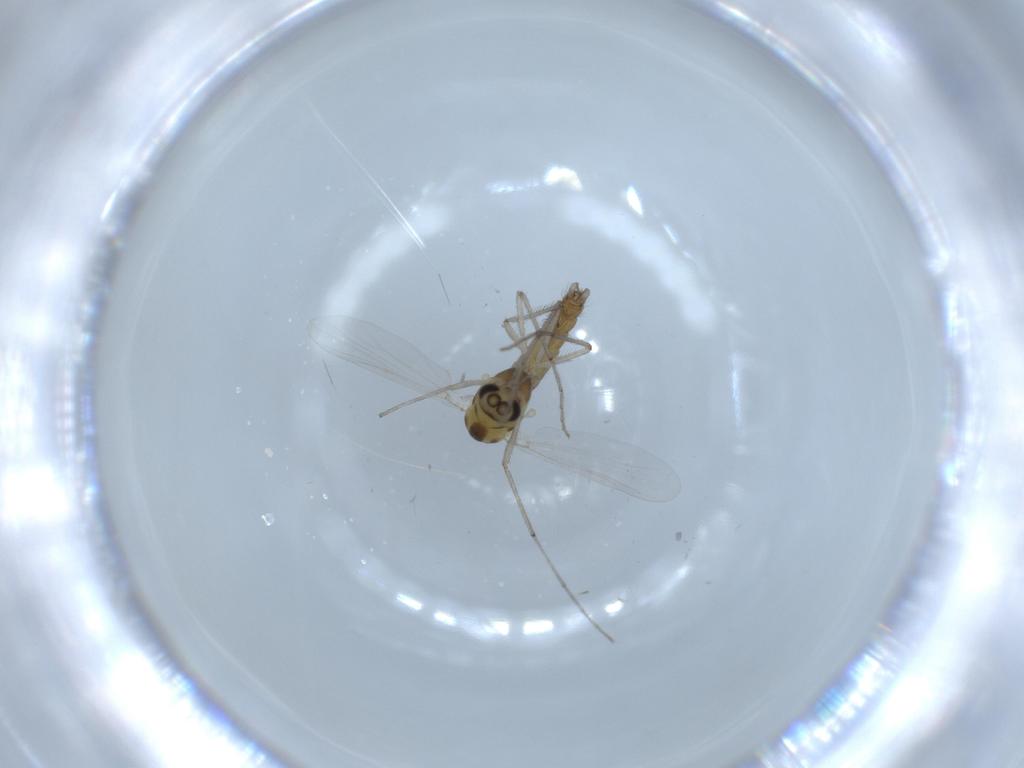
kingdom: Animalia
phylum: Arthropoda
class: Insecta
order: Diptera
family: Chironomidae
